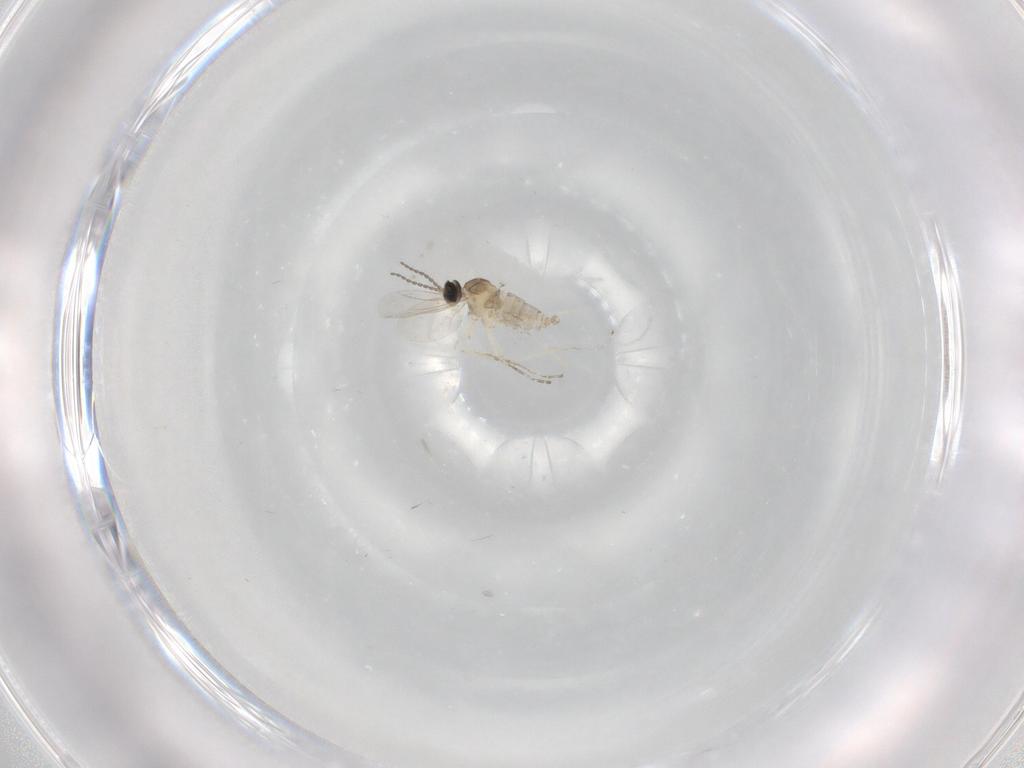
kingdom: Animalia
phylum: Arthropoda
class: Insecta
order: Diptera
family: Cecidomyiidae
